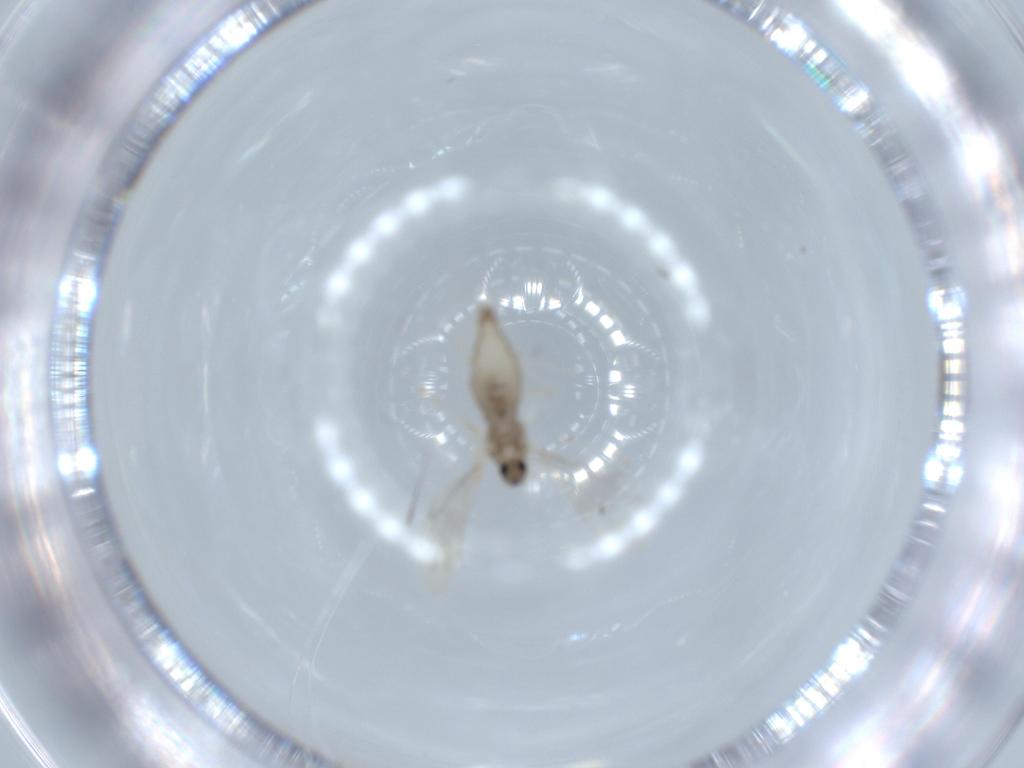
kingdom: Animalia
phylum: Arthropoda
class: Insecta
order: Diptera
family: Cecidomyiidae
